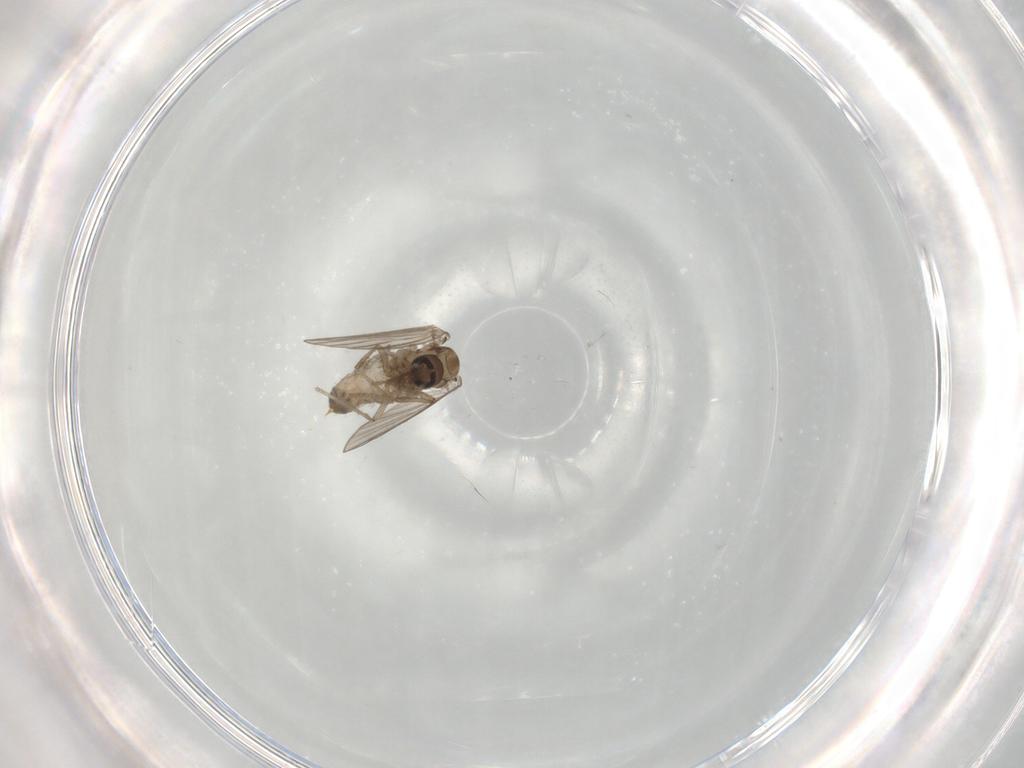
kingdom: Animalia
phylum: Arthropoda
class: Insecta
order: Diptera
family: Psychodidae
